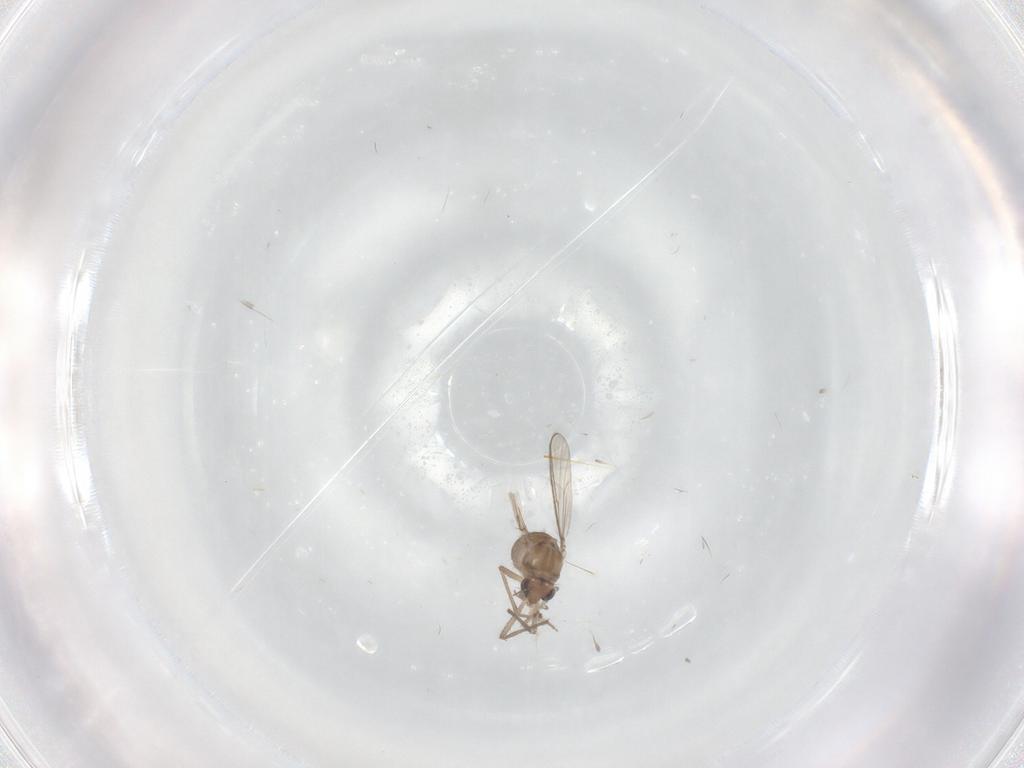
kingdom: Animalia
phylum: Arthropoda
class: Insecta
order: Diptera
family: Chironomidae
